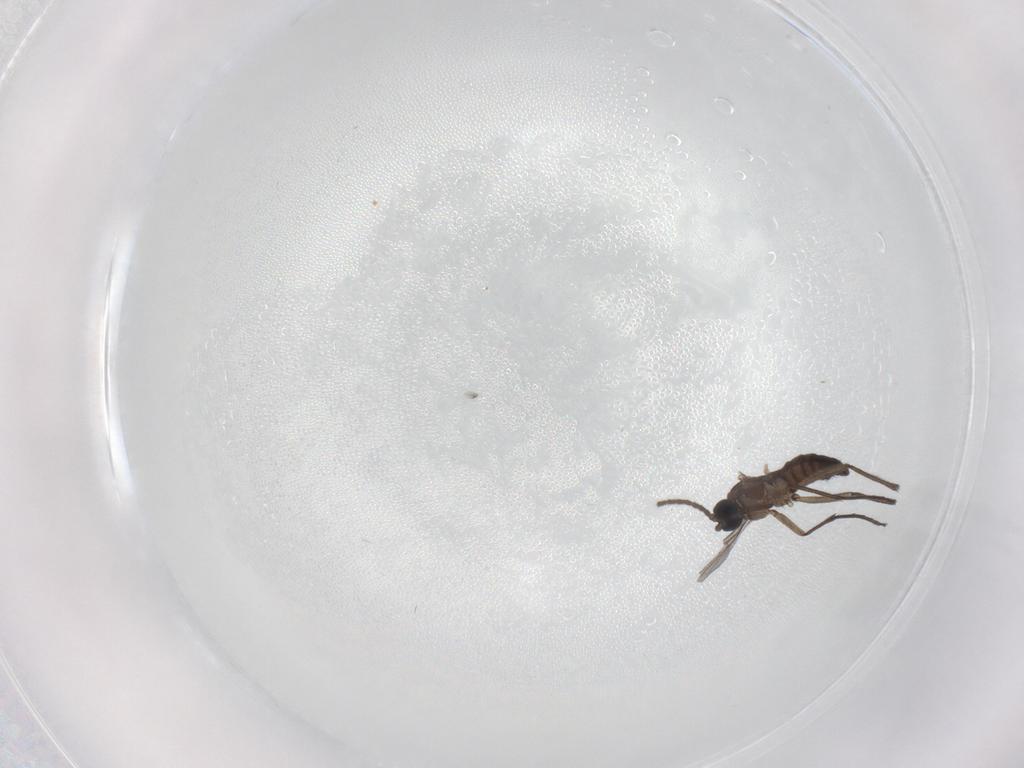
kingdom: Animalia
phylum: Arthropoda
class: Insecta
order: Diptera
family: Sciaridae
